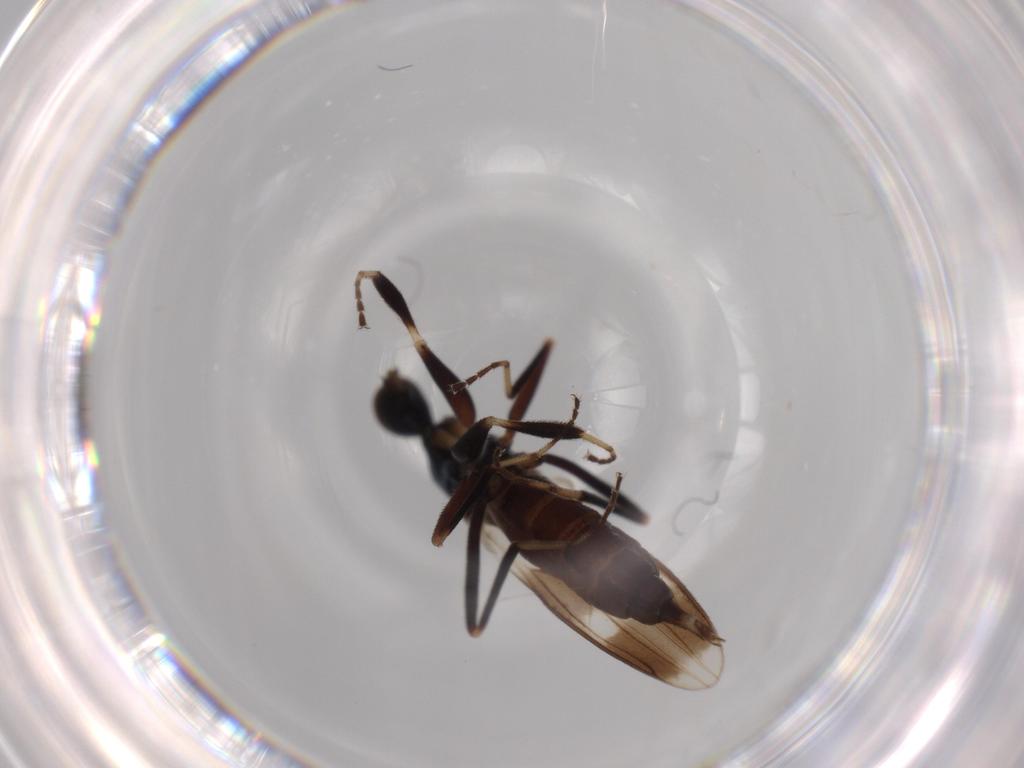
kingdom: Animalia
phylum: Arthropoda
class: Insecta
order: Diptera
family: Hybotidae
